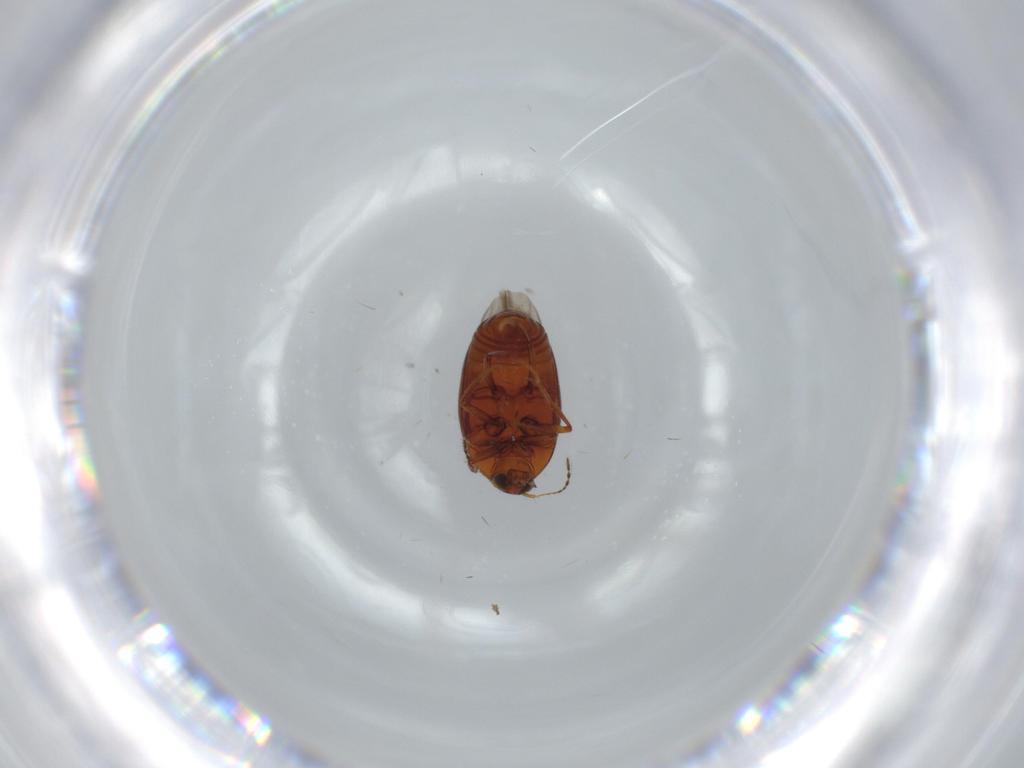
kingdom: Animalia
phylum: Arthropoda
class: Insecta
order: Coleoptera
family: Staphylinidae
